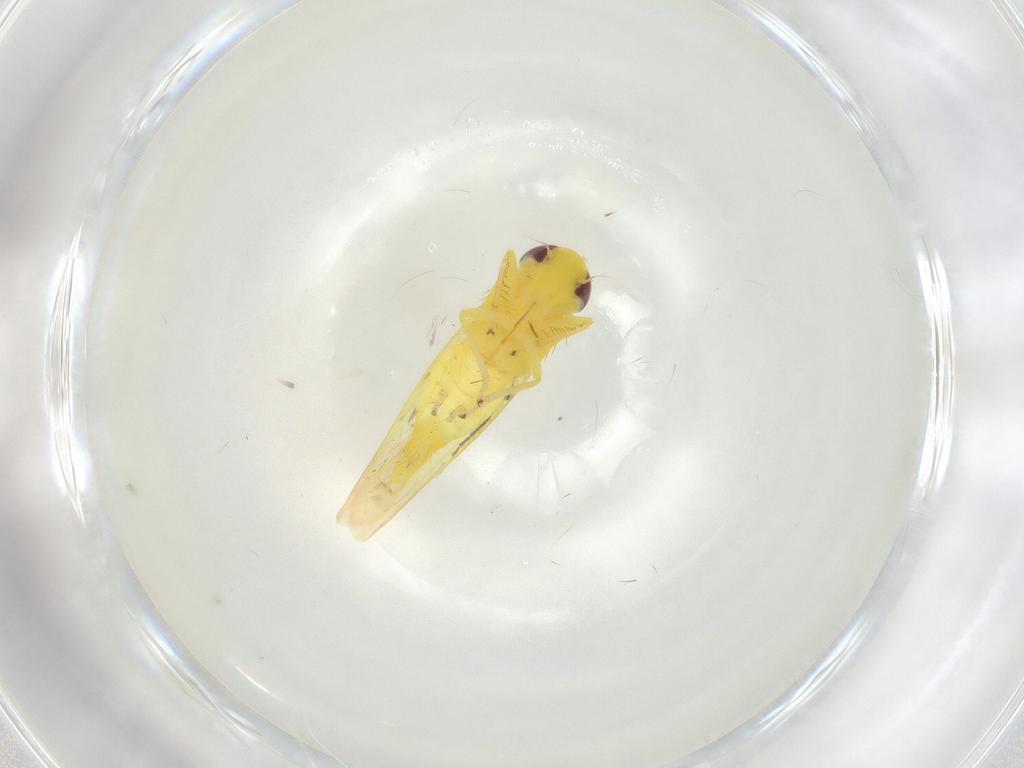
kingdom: Animalia
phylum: Arthropoda
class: Insecta
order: Hemiptera
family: Cicadellidae
